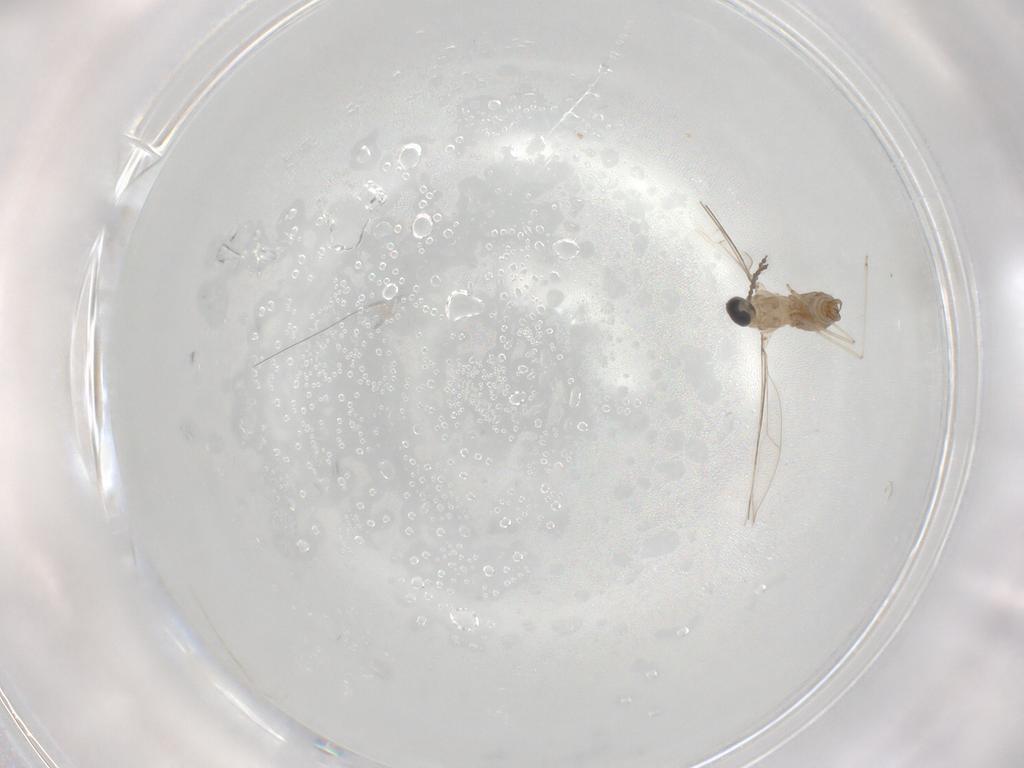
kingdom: Animalia
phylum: Arthropoda
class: Insecta
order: Diptera
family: Cecidomyiidae
